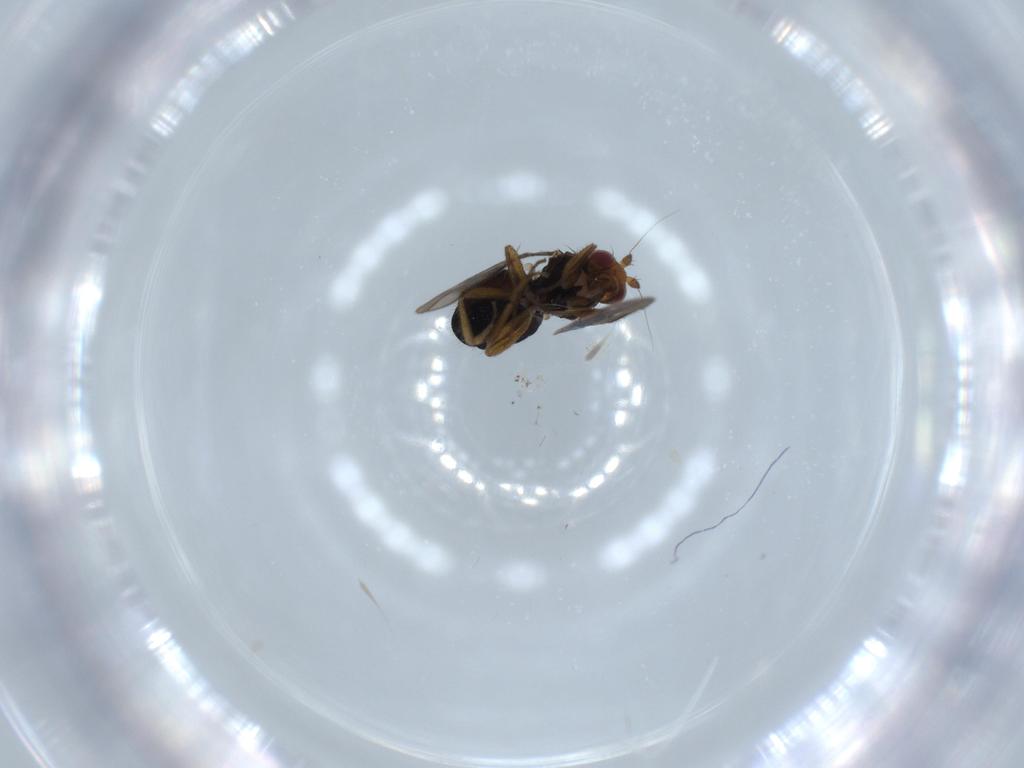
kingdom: Animalia
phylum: Arthropoda
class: Insecta
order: Diptera
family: Sphaeroceridae
